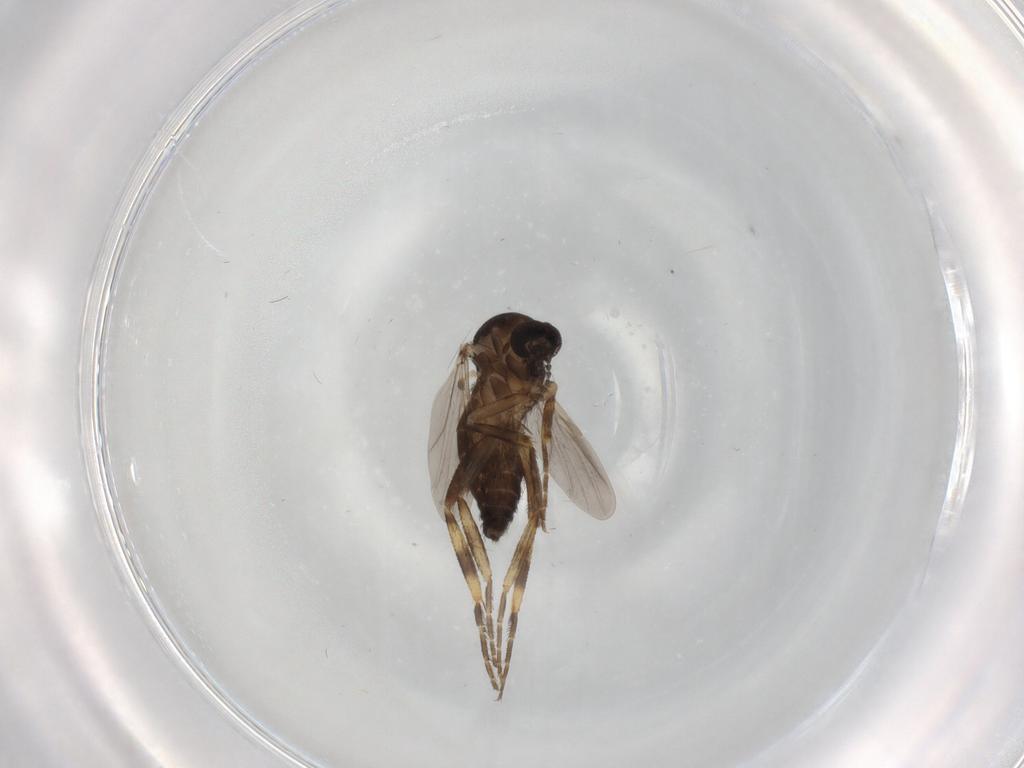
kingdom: Animalia
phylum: Arthropoda
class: Insecta
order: Diptera
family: Ceratopogonidae
